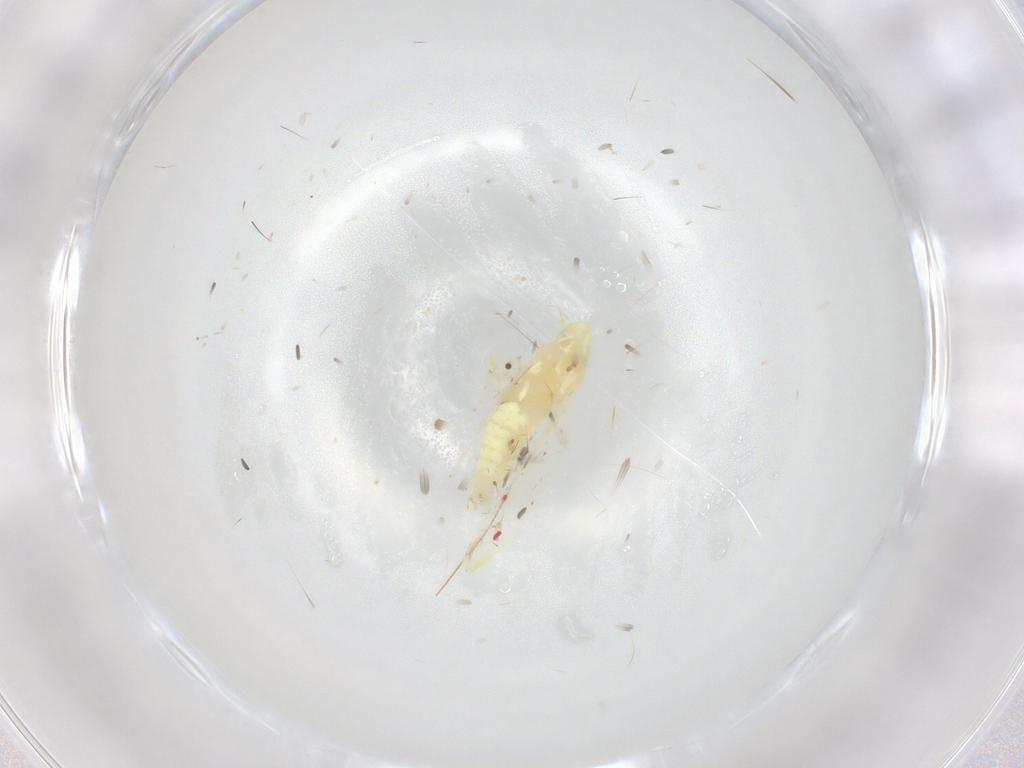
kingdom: Animalia
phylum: Arthropoda
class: Insecta
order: Hemiptera
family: Cicadellidae
